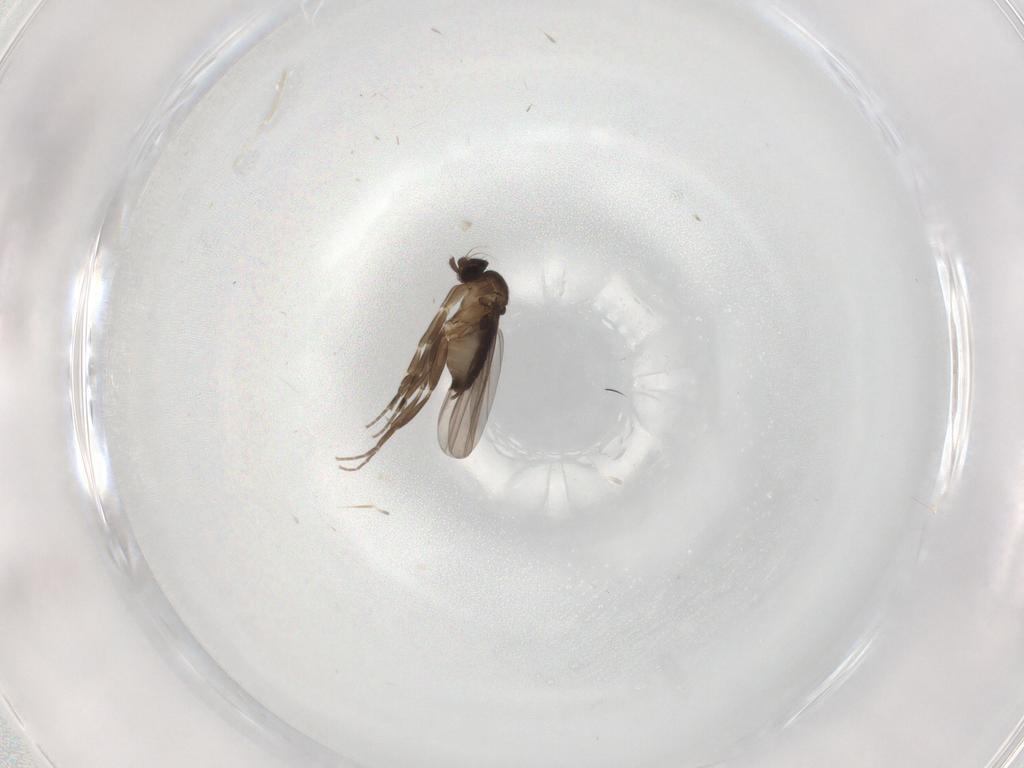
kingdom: Animalia
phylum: Arthropoda
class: Insecta
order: Diptera
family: Phoridae
